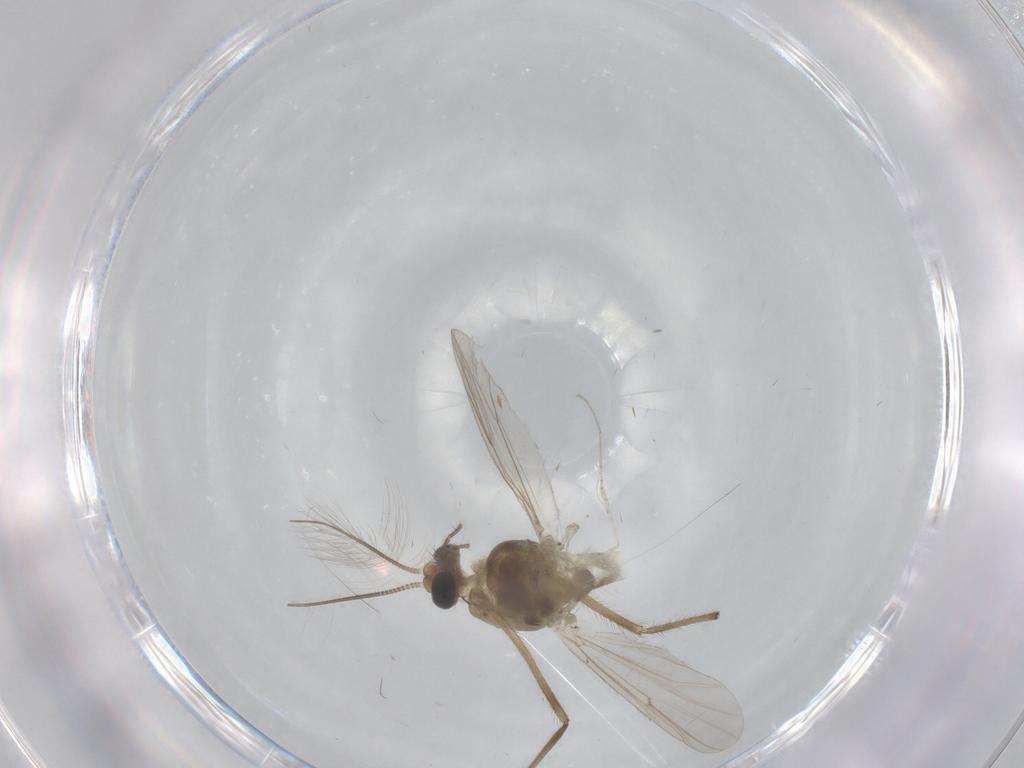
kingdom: Animalia
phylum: Arthropoda
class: Insecta
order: Diptera
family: Chironomidae
